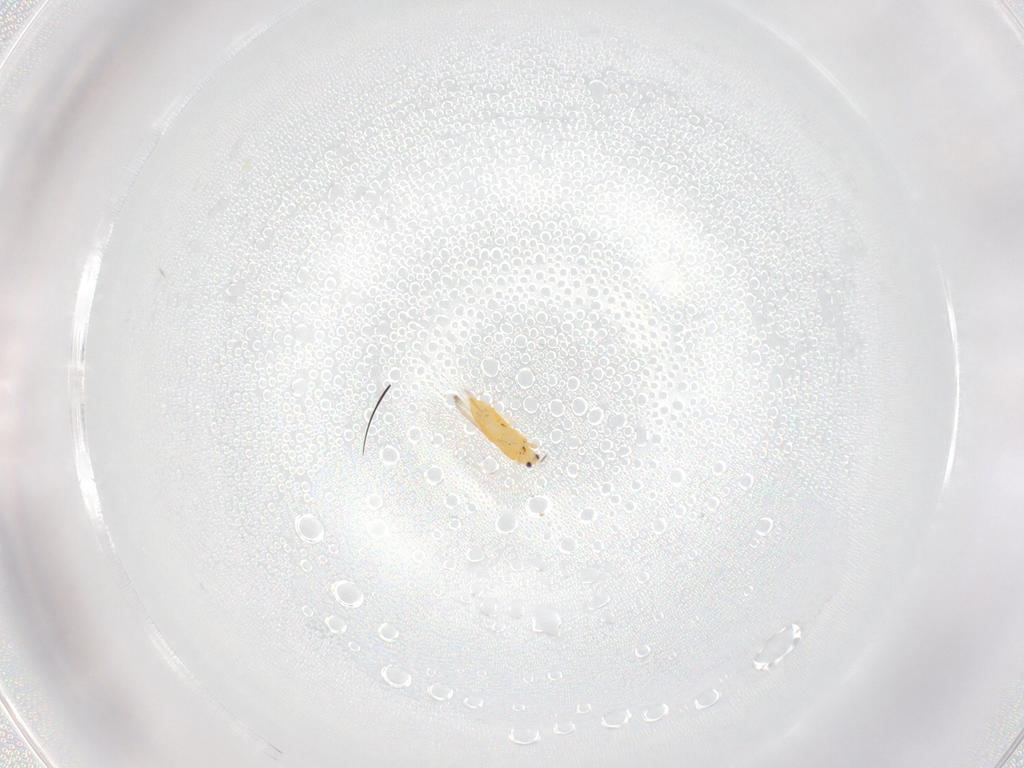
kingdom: Animalia
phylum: Arthropoda
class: Insecta
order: Thysanoptera
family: Thripidae
